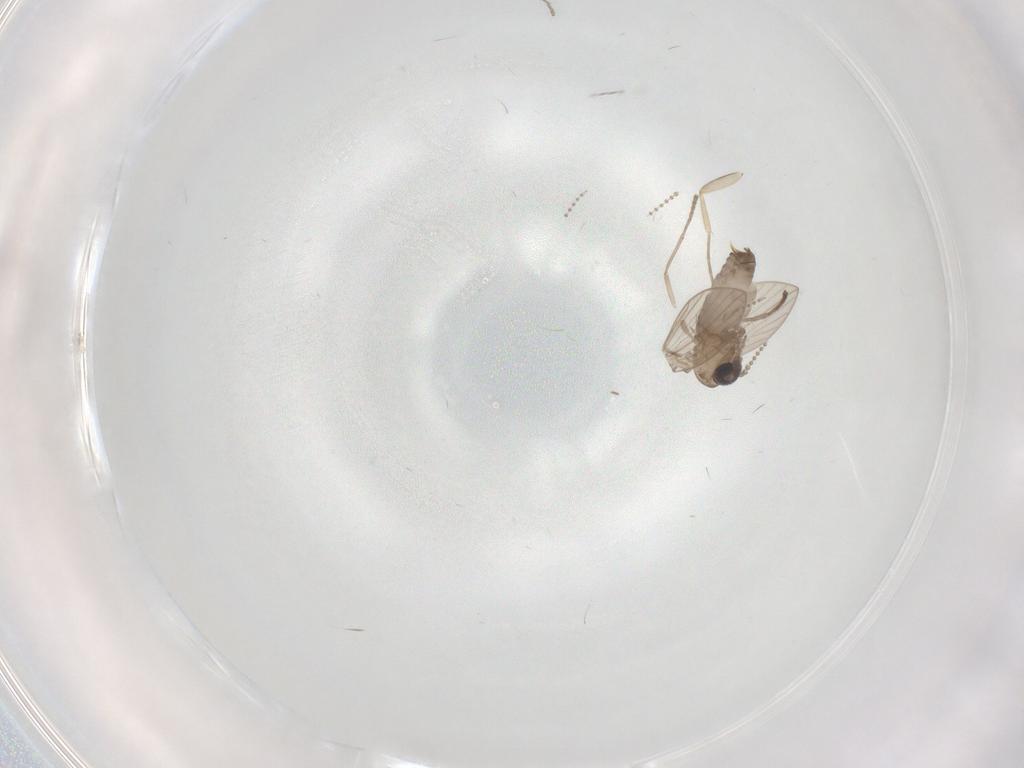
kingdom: Animalia
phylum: Arthropoda
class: Insecta
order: Diptera
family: Psychodidae
